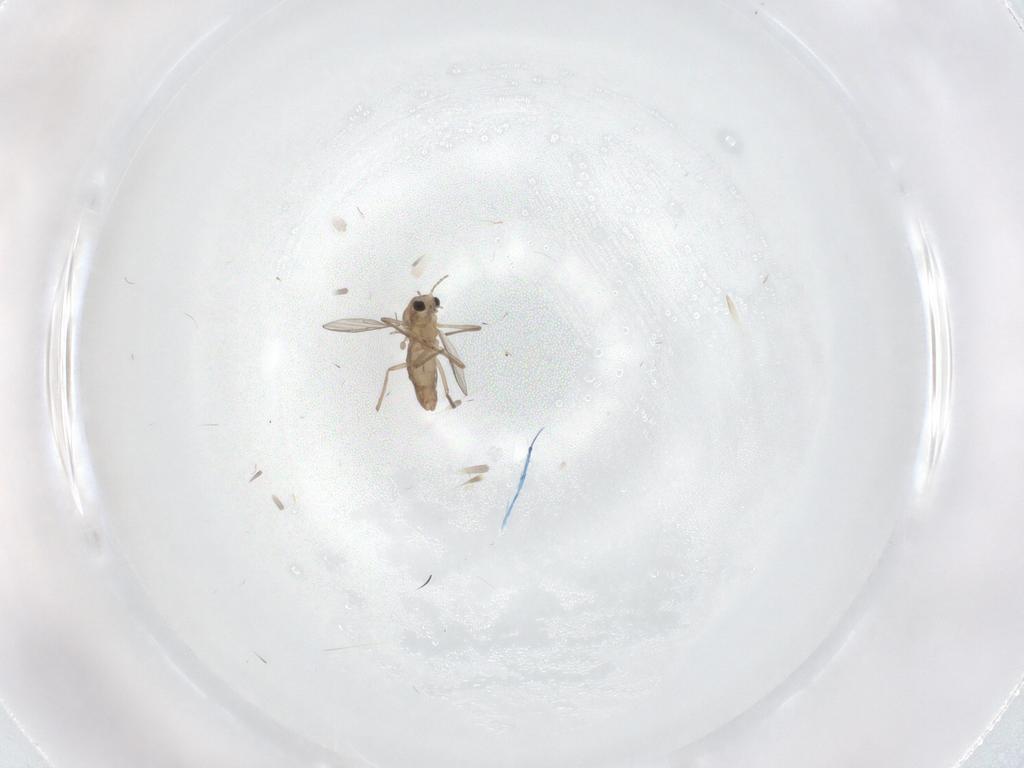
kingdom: Animalia
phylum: Arthropoda
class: Insecta
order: Diptera
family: Chironomidae
